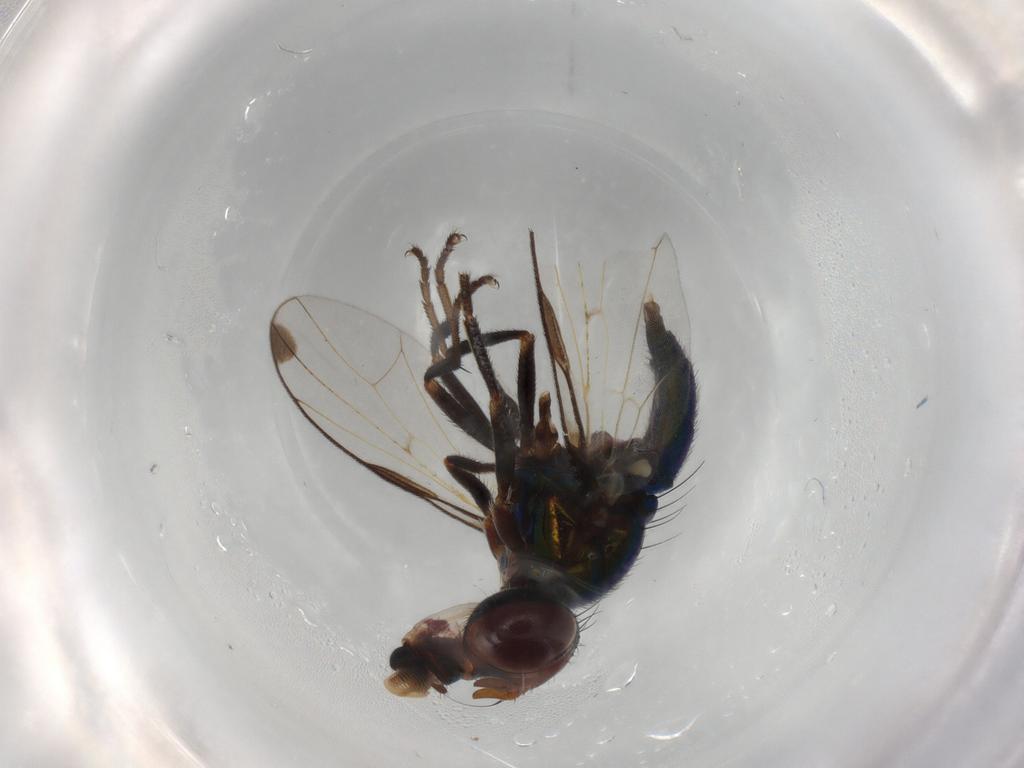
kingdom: Animalia
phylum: Arthropoda
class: Insecta
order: Diptera
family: Platystomatidae
